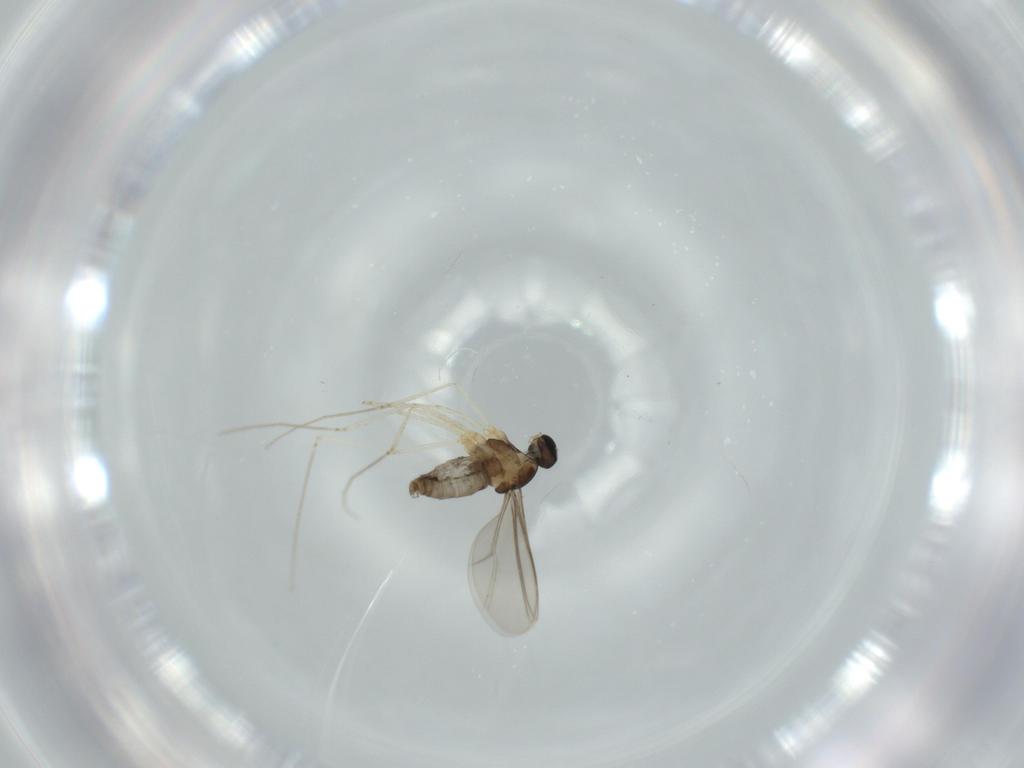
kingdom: Animalia
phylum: Arthropoda
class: Insecta
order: Diptera
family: Cecidomyiidae
